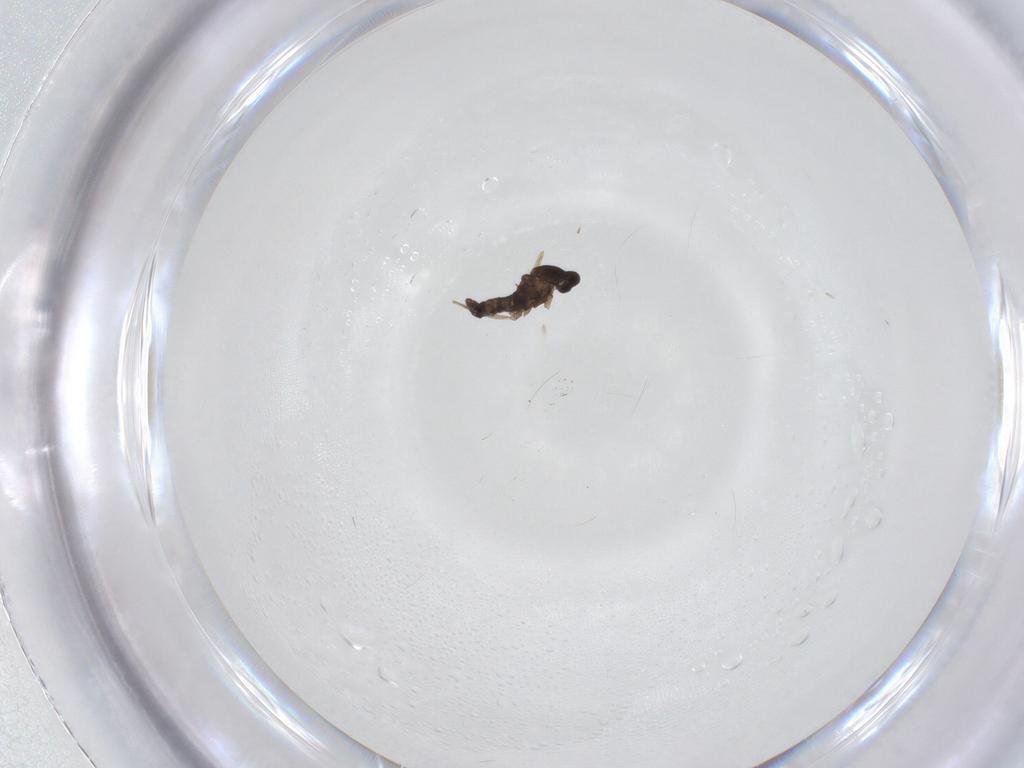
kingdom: Animalia
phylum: Arthropoda
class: Insecta
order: Diptera
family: Cecidomyiidae
